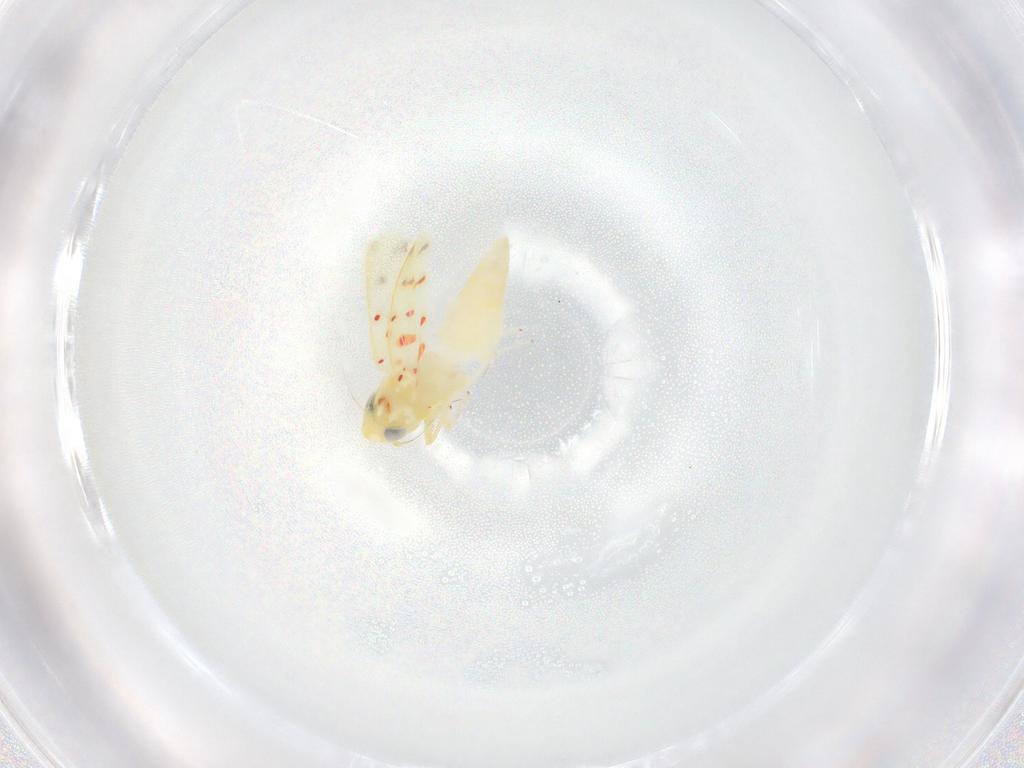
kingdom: Animalia
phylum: Arthropoda
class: Insecta
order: Hemiptera
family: Cicadellidae
